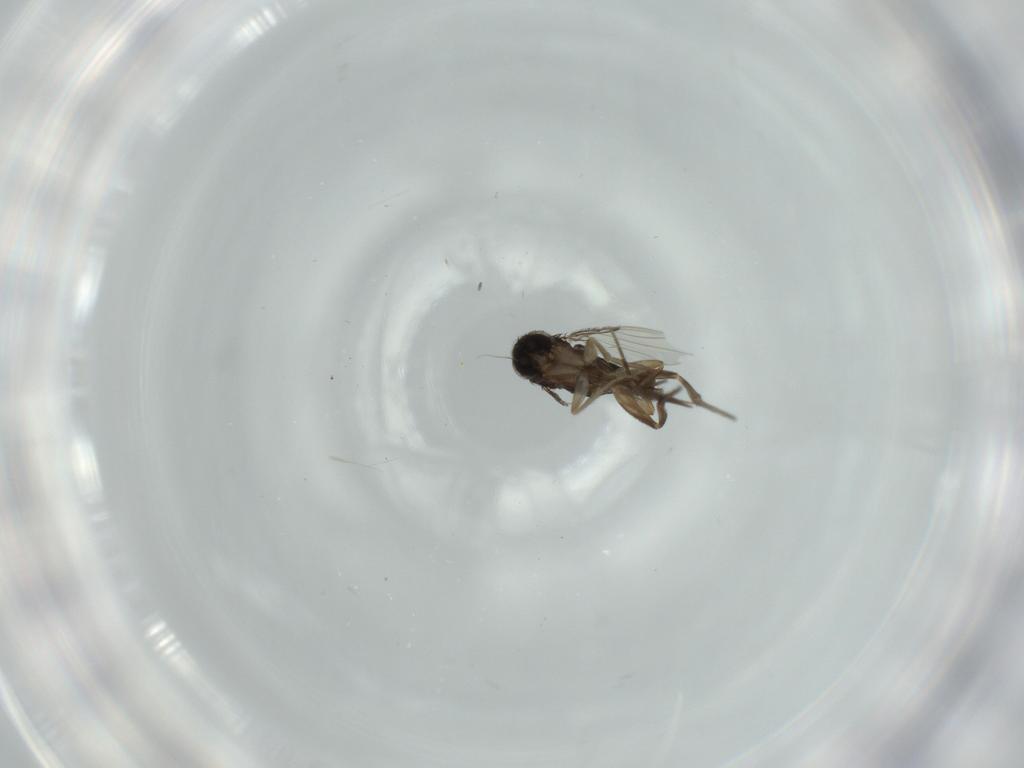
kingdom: Animalia
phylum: Arthropoda
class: Insecta
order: Diptera
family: Phoridae
